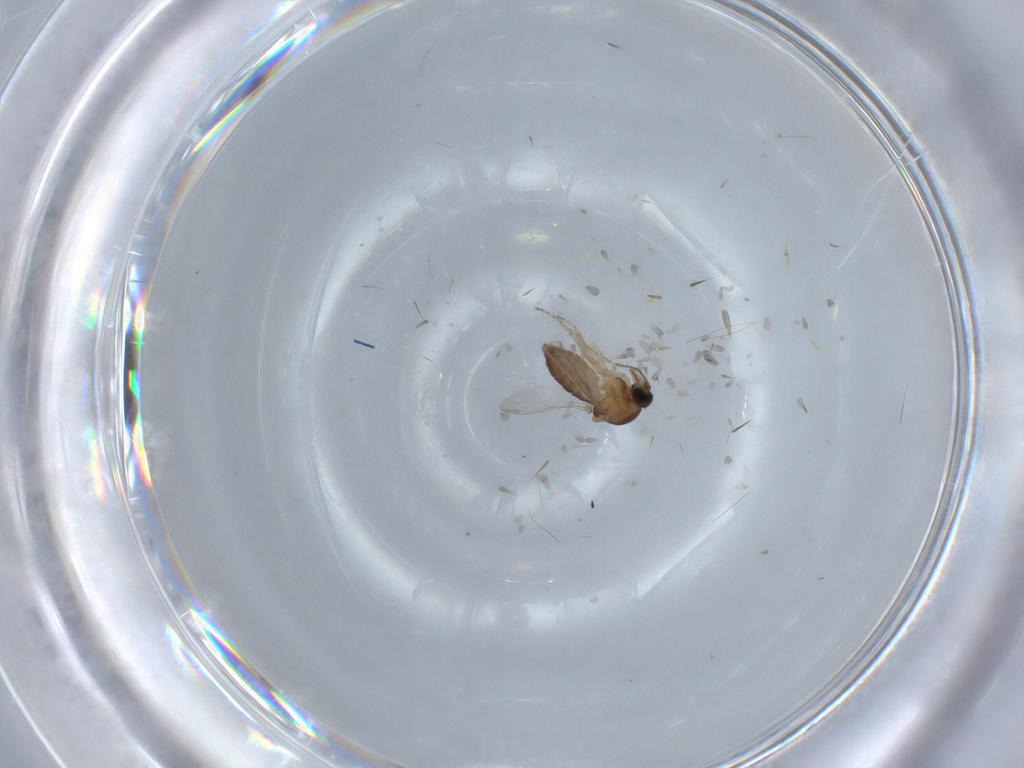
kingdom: Animalia
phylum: Arthropoda
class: Insecta
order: Diptera
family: Ceratopogonidae
